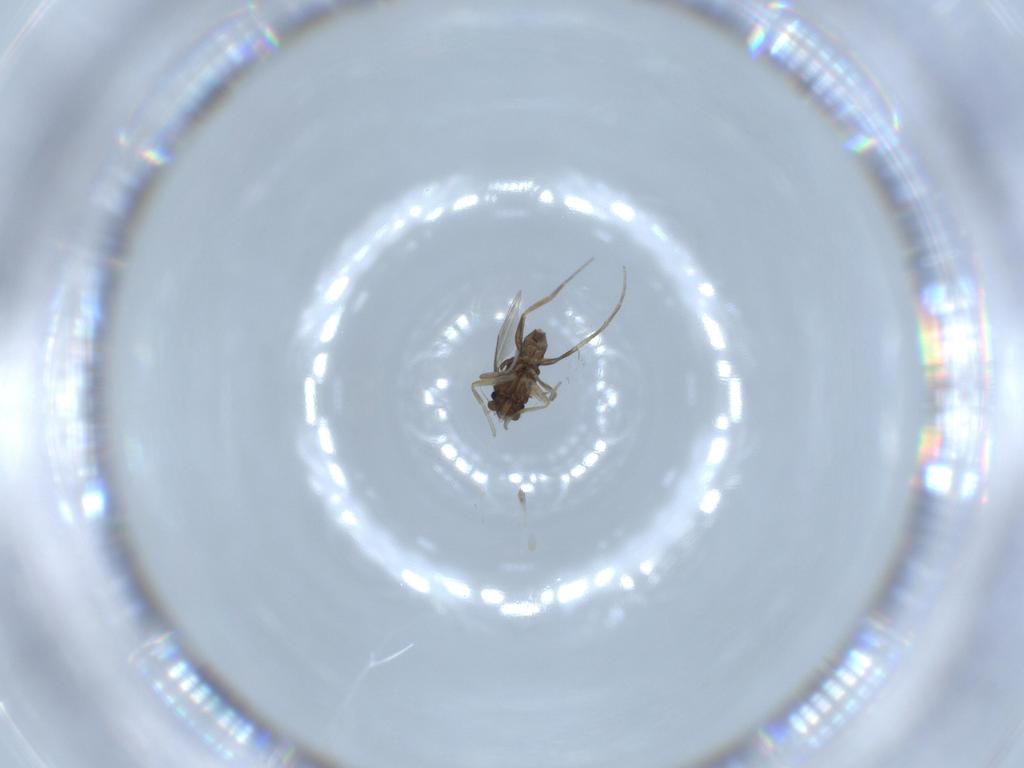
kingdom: Animalia
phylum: Arthropoda
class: Insecta
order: Diptera
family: Phoridae
